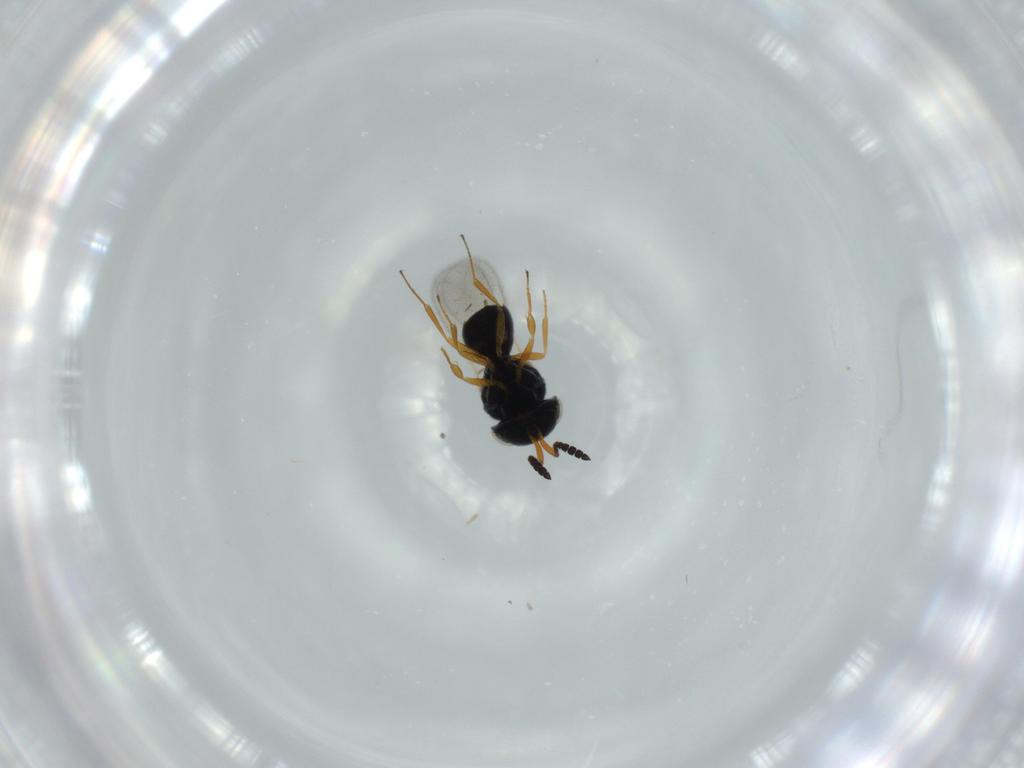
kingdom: Animalia
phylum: Arthropoda
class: Insecta
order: Hymenoptera
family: Scelionidae
